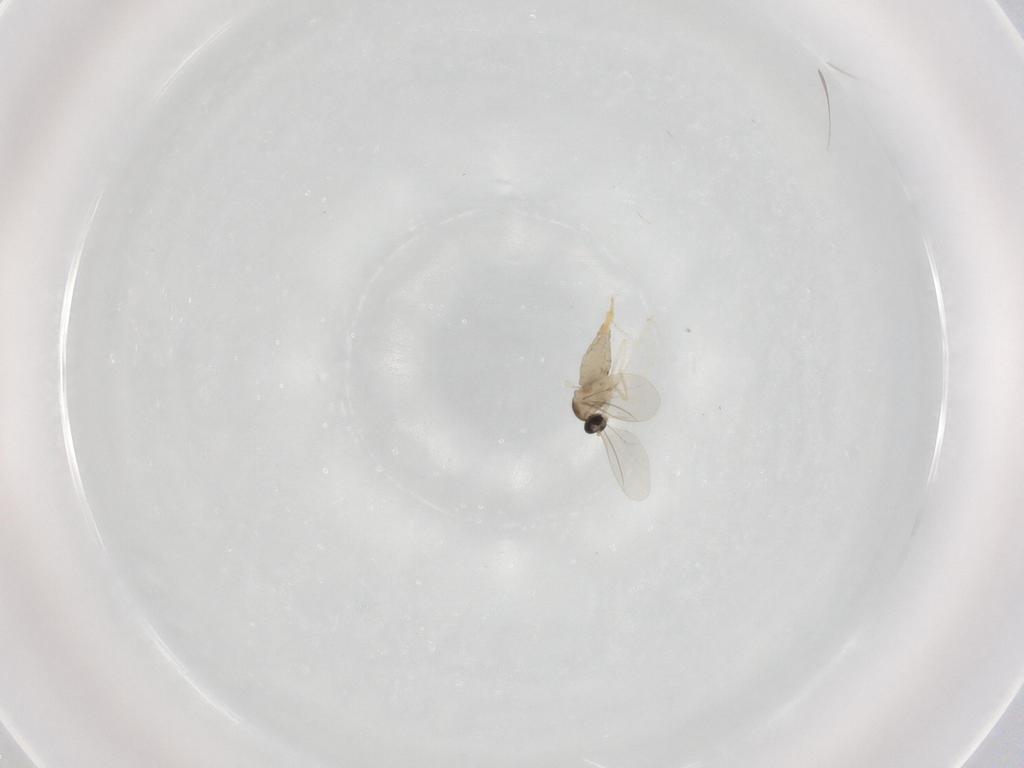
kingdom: Animalia
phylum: Arthropoda
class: Insecta
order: Diptera
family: Cecidomyiidae
